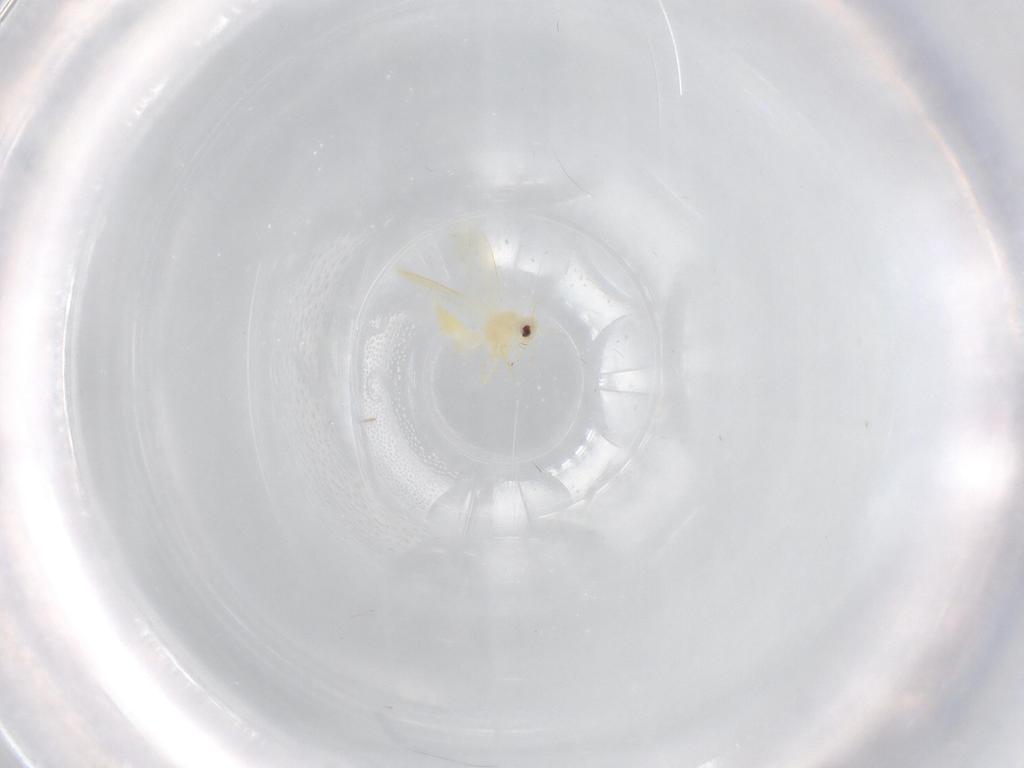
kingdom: Animalia
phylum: Arthropoda
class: Insecta
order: Hemiptera
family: Aleyrodidae
